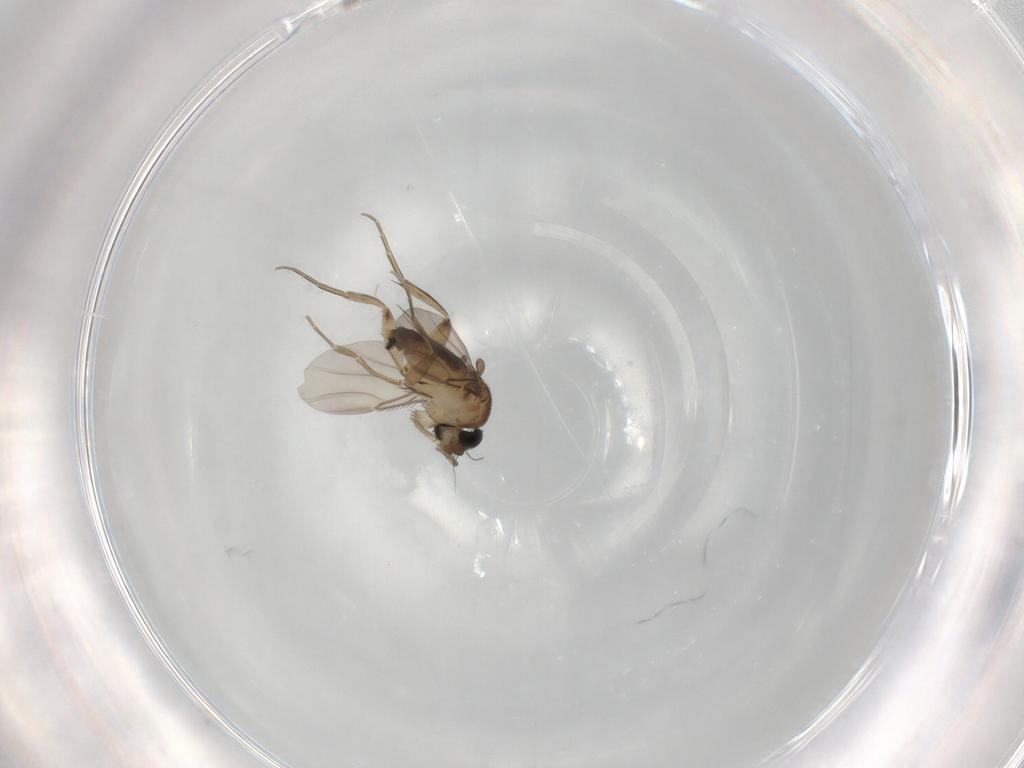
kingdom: Animalia
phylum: Arthropoda
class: Insecta
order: Diptera
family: Phoridae
